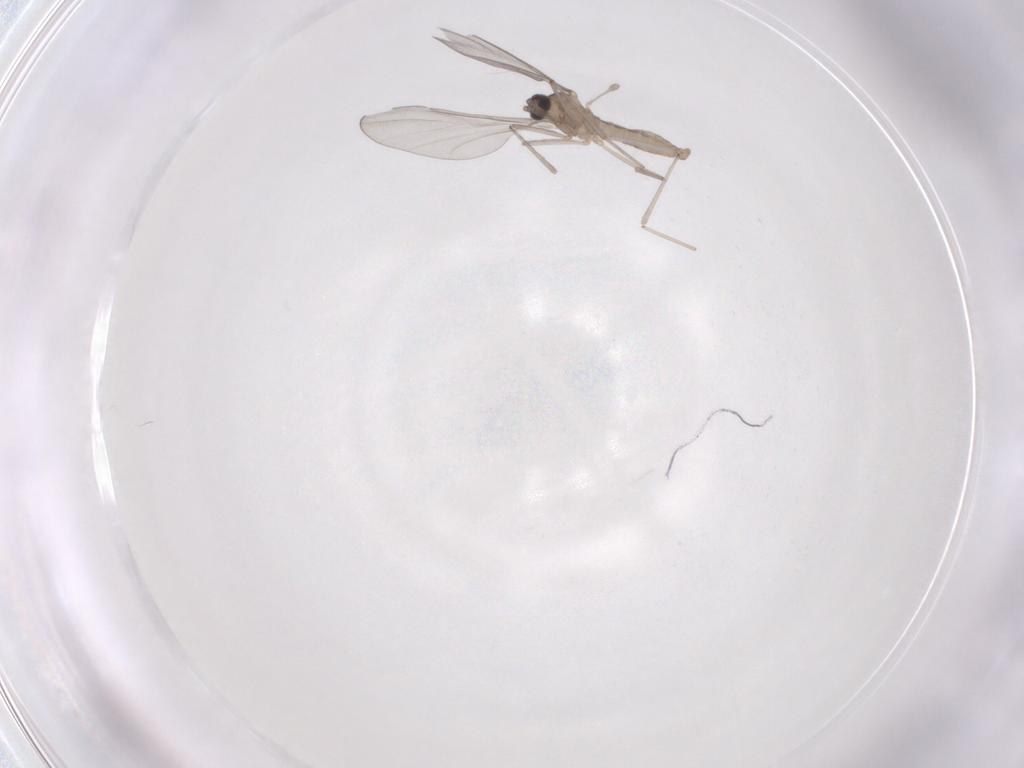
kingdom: Animalia
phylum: Arthropoda
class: Insecta
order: Diptera
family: Cecidomyiidae
